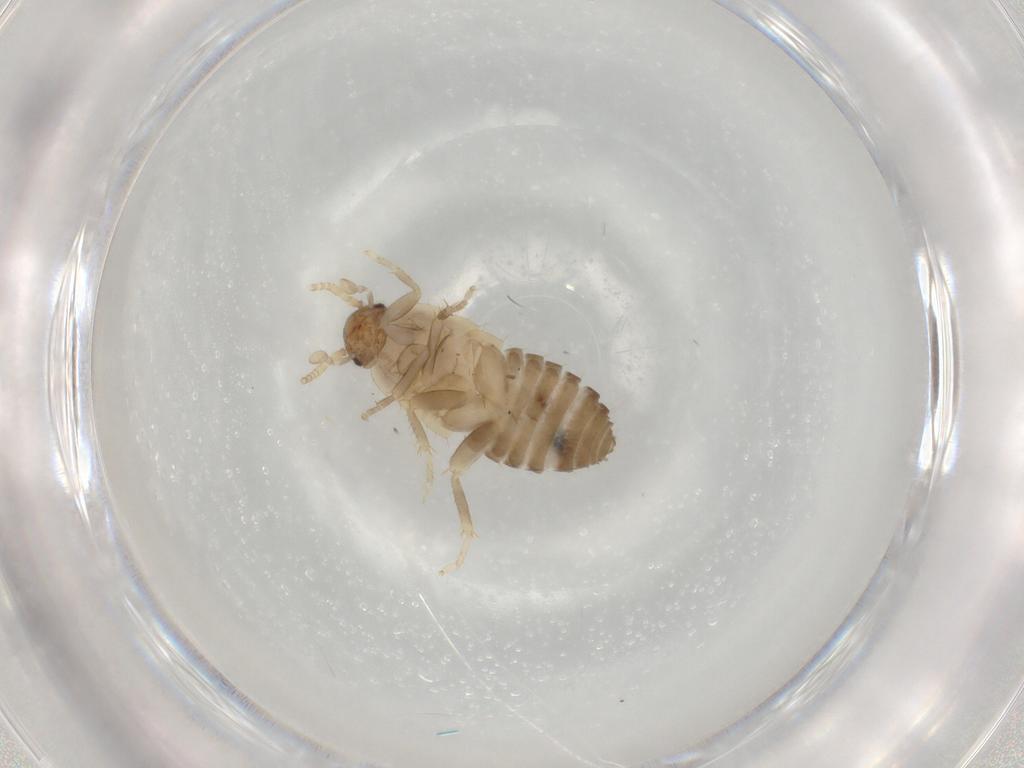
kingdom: Animalia
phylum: Arthropoda
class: Insecta
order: Blattodea
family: Ectobiidae
